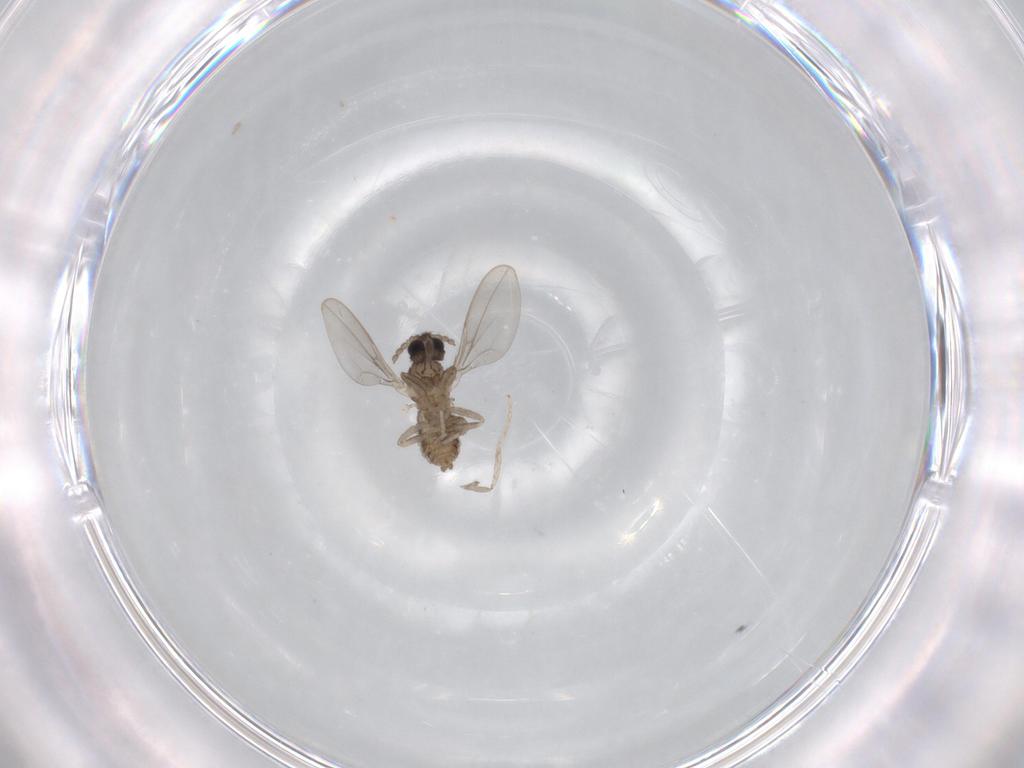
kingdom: Animalia
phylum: Arthropoda
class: Insecta
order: Diptera
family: Cecidomyiidae
